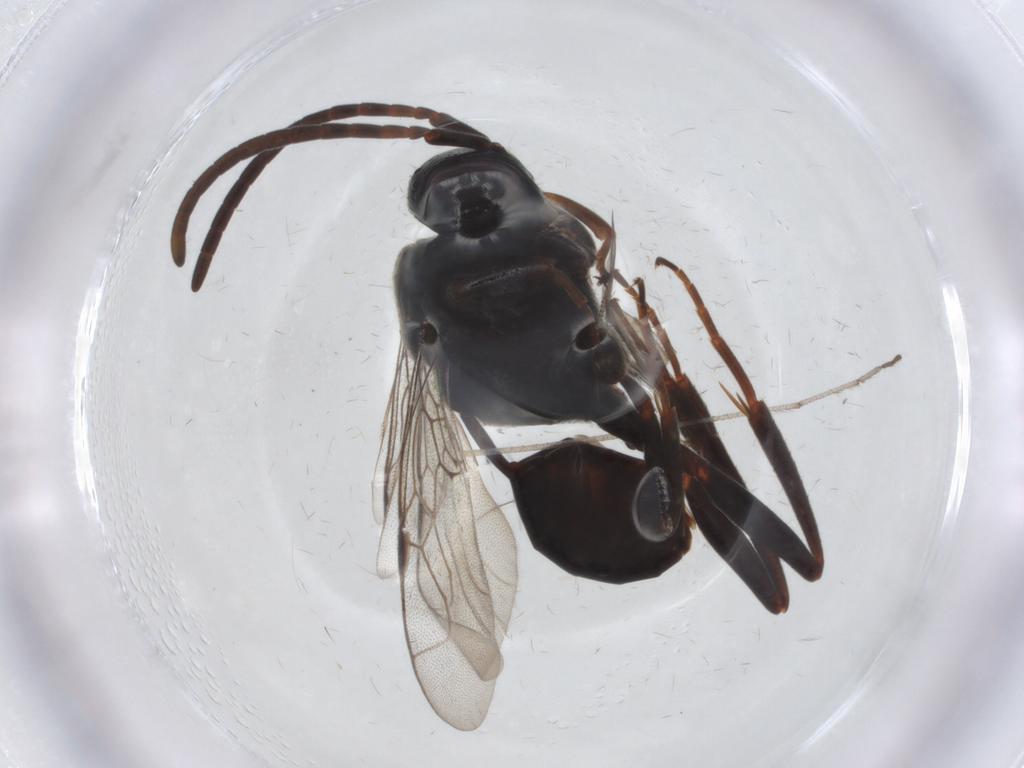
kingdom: Animalia
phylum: Arthropoda
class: Insecta
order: Hymenoptera
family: Evaniidae
